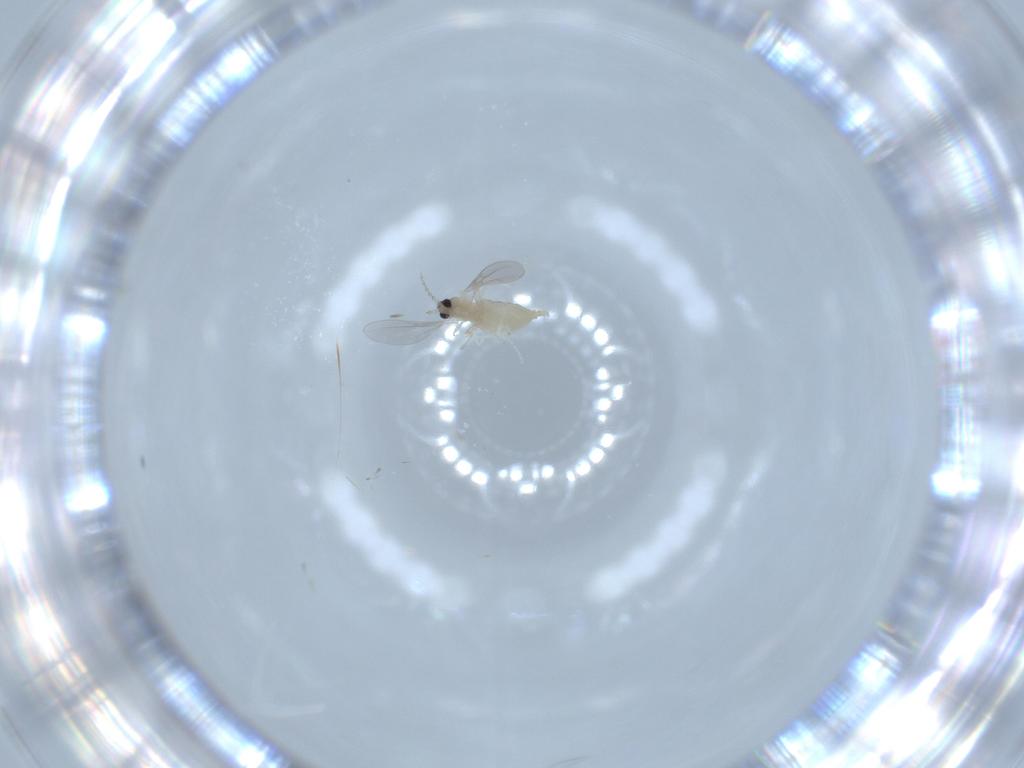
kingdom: Animalia
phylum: Arthropoda
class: Insecta
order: Diptera
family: Cecidomyiidae
